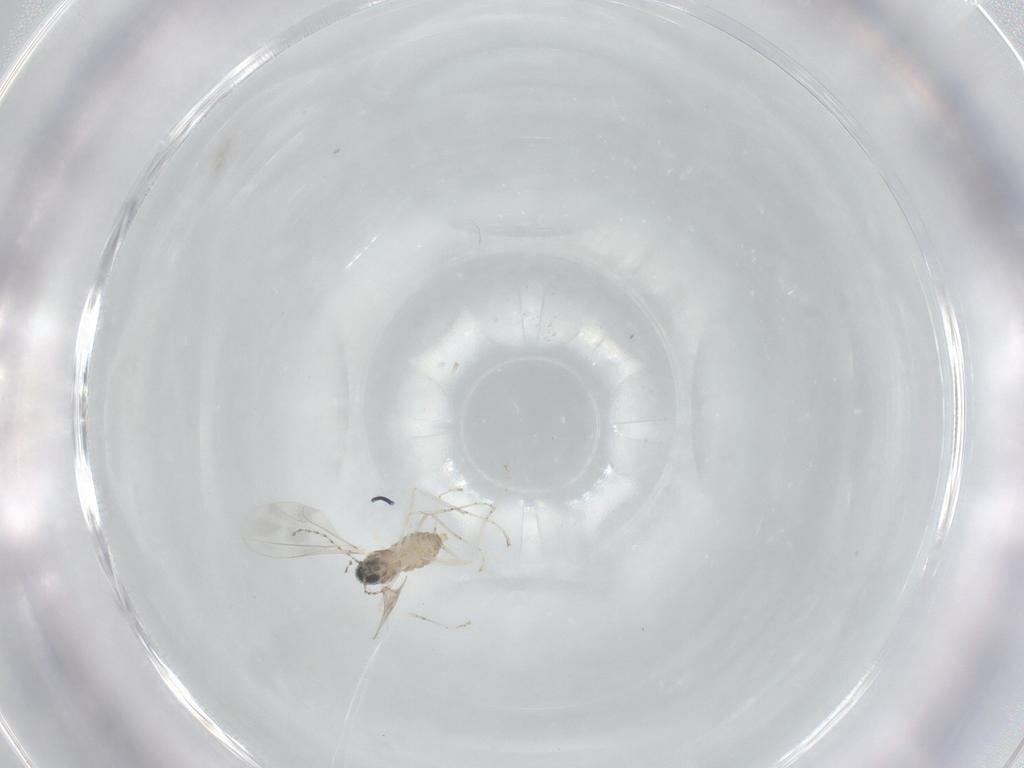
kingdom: Animalia
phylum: Arthropoda
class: Insecta
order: Diptera
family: Cecidomyiidae
